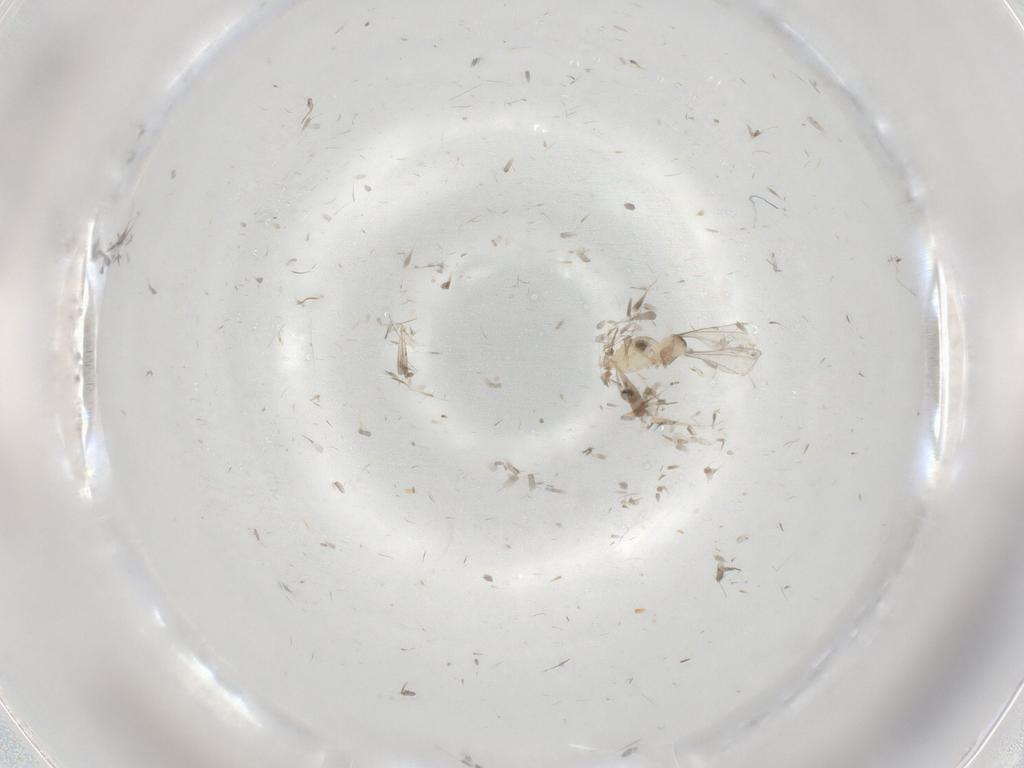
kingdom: Animalia
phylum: Arthropoda
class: Insecta
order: Diptera
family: Cecidomyiidae
